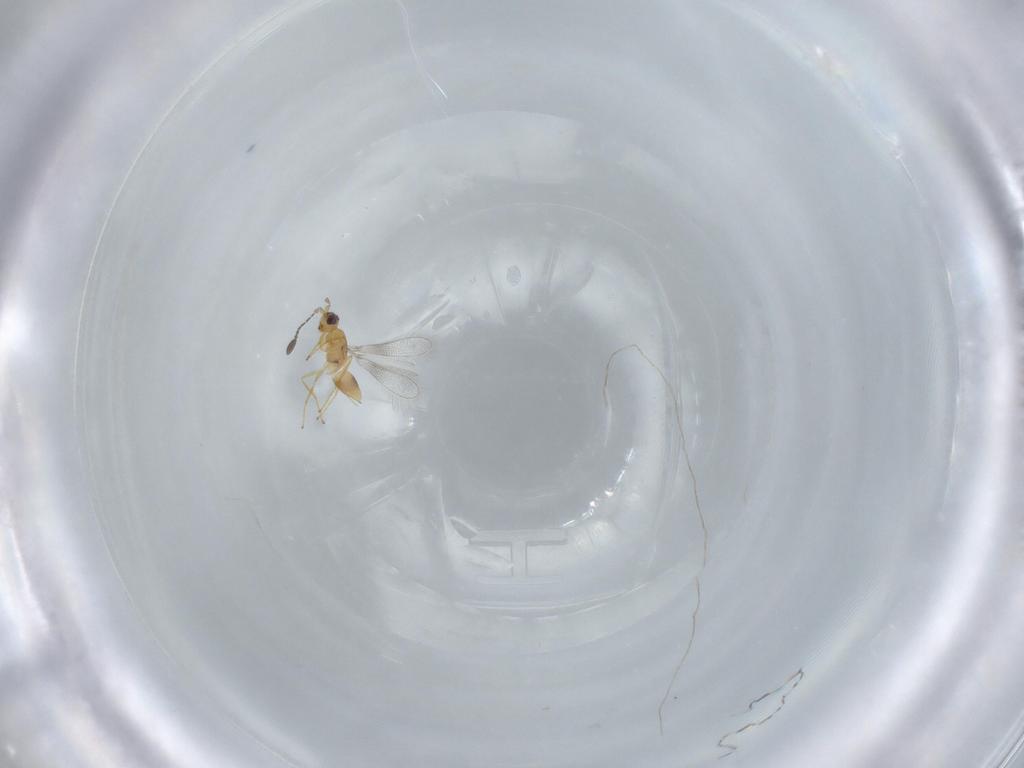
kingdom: Animalia
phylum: Arthropoda
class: Insecta
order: Hymenoptera
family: Mymaridae
